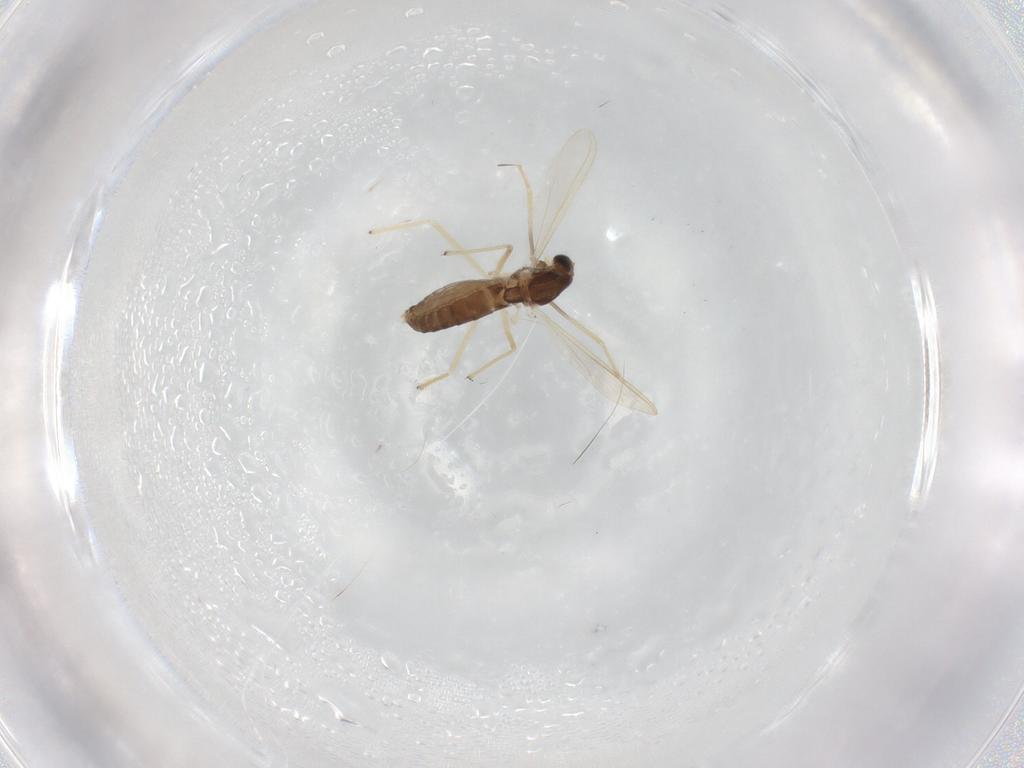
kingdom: Animalia
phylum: Arthropoda
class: Insecta
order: Diptera
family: Chironomidae
